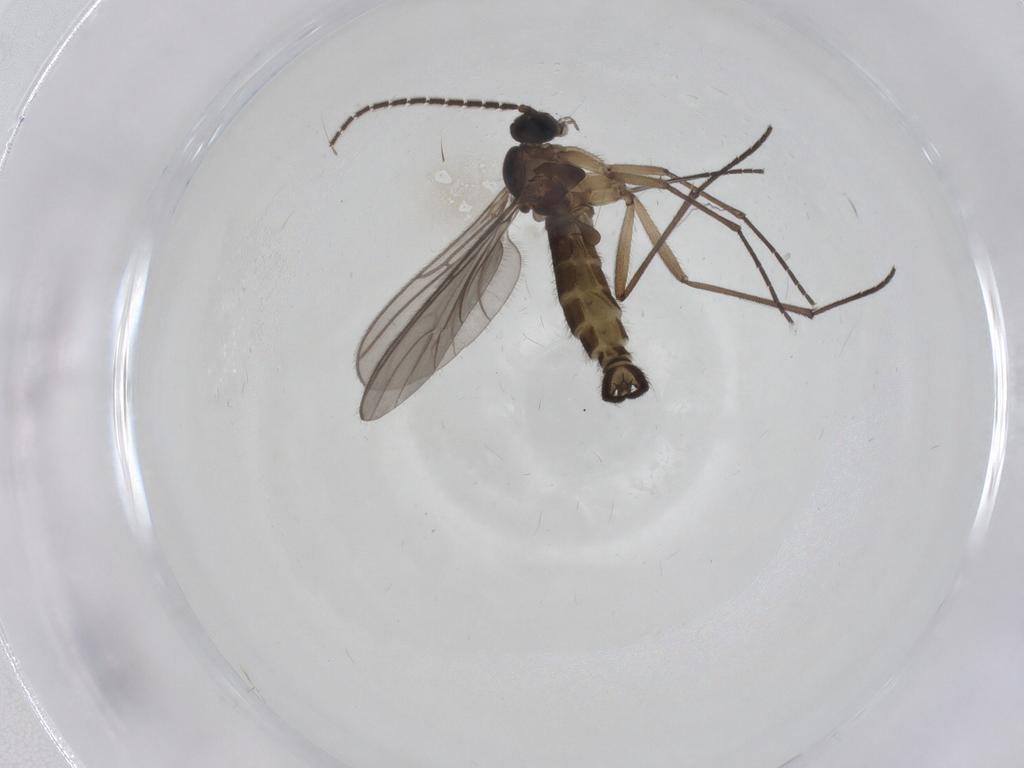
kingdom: Animalia
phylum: Arthropoda
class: Insecta
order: Diptera
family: Sciaridae
